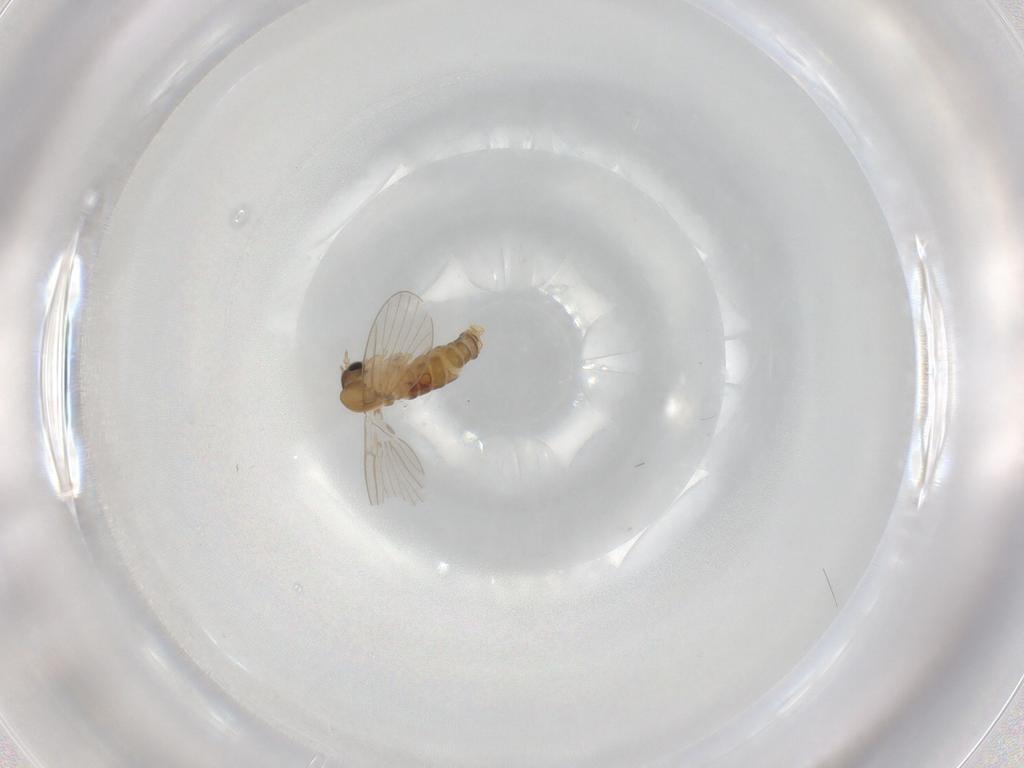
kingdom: Animalia
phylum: Arthropoda
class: Insecta
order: Diptera
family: Psychodidae
